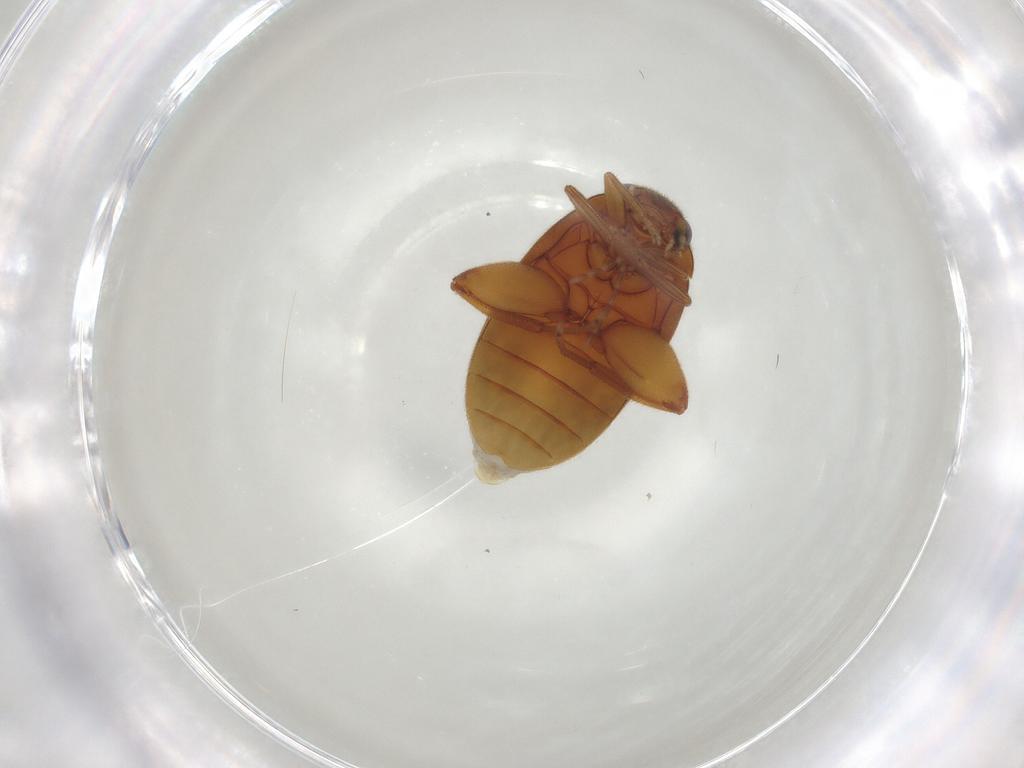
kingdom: Animalia
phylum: Arthropoda
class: Insecta
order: Coleoptera
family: Scirtidae
